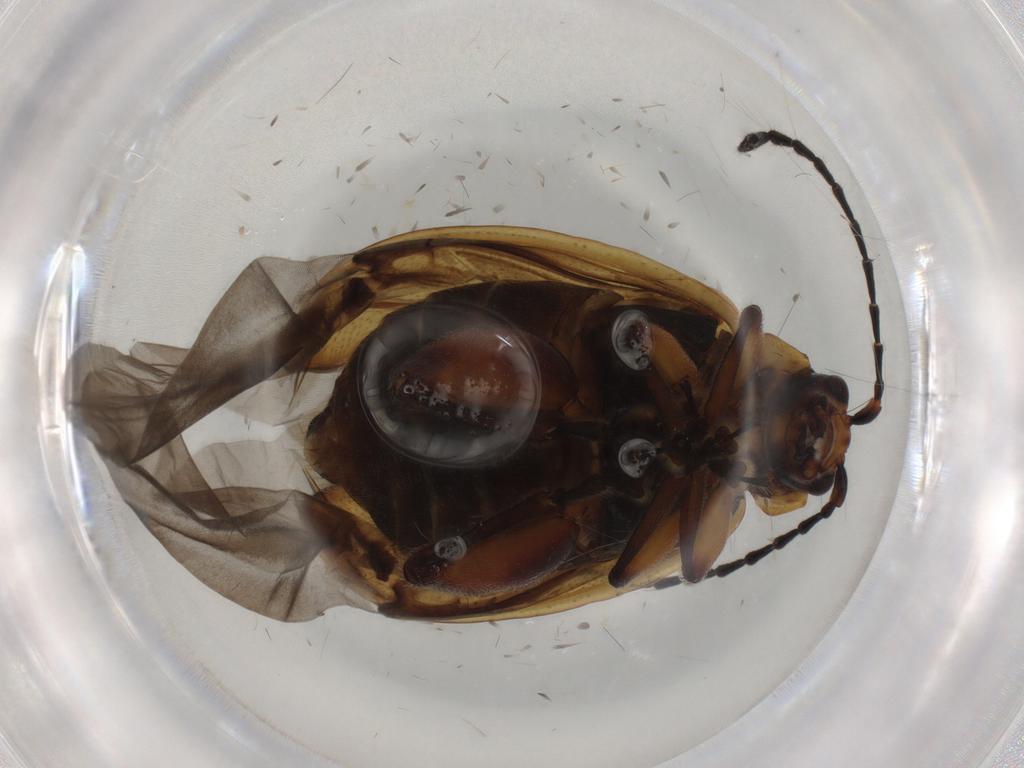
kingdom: Animalia
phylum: Arthropoda
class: Insecta
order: Coleoptera
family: Chrysomelidae
